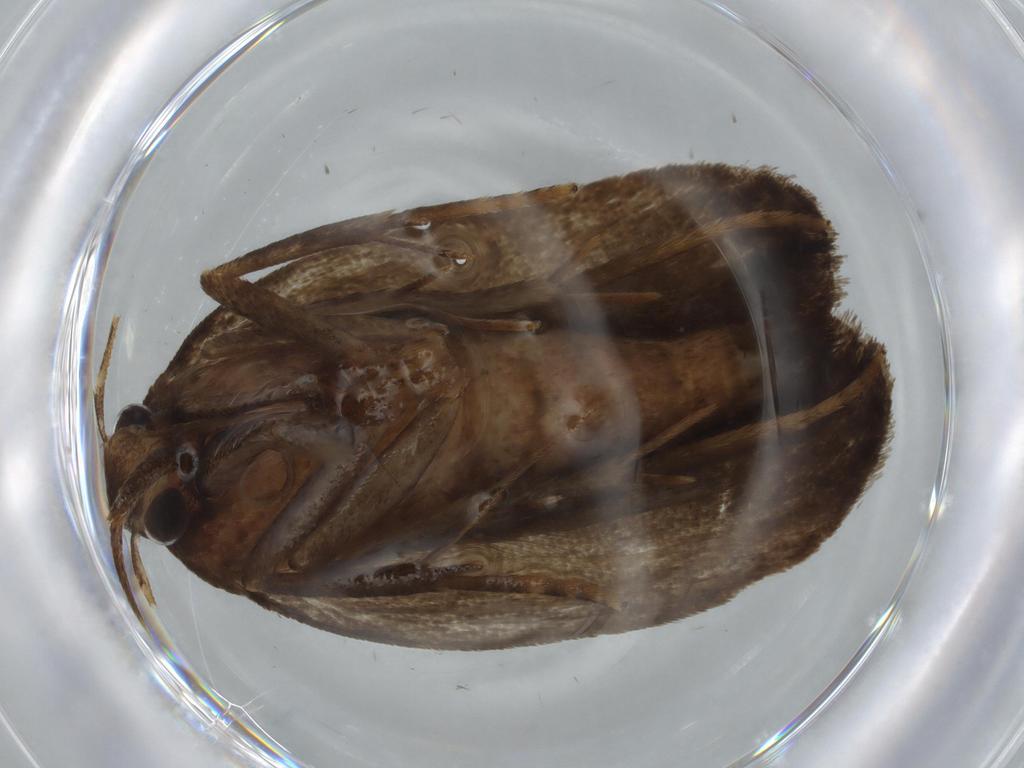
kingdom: Animalia
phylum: Arthropoda
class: Insecta
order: Lepidoptera
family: Autostichidae
